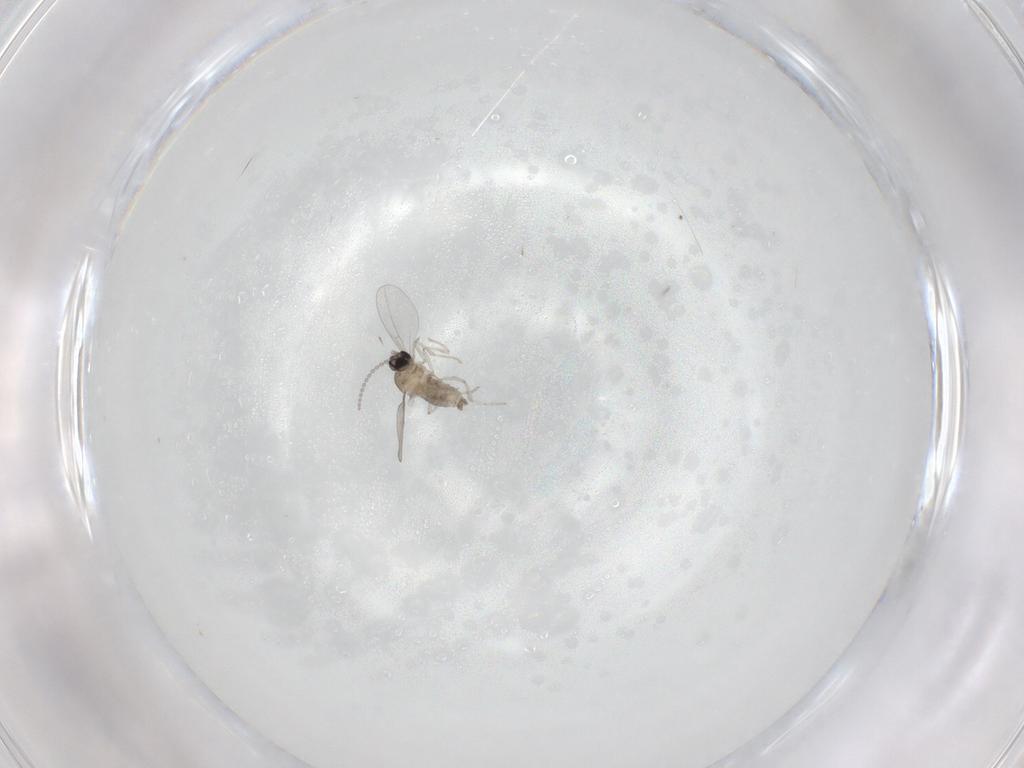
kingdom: Animalia
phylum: Arthropoda
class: Insecta
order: Diptera
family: Cecidomyiidae
